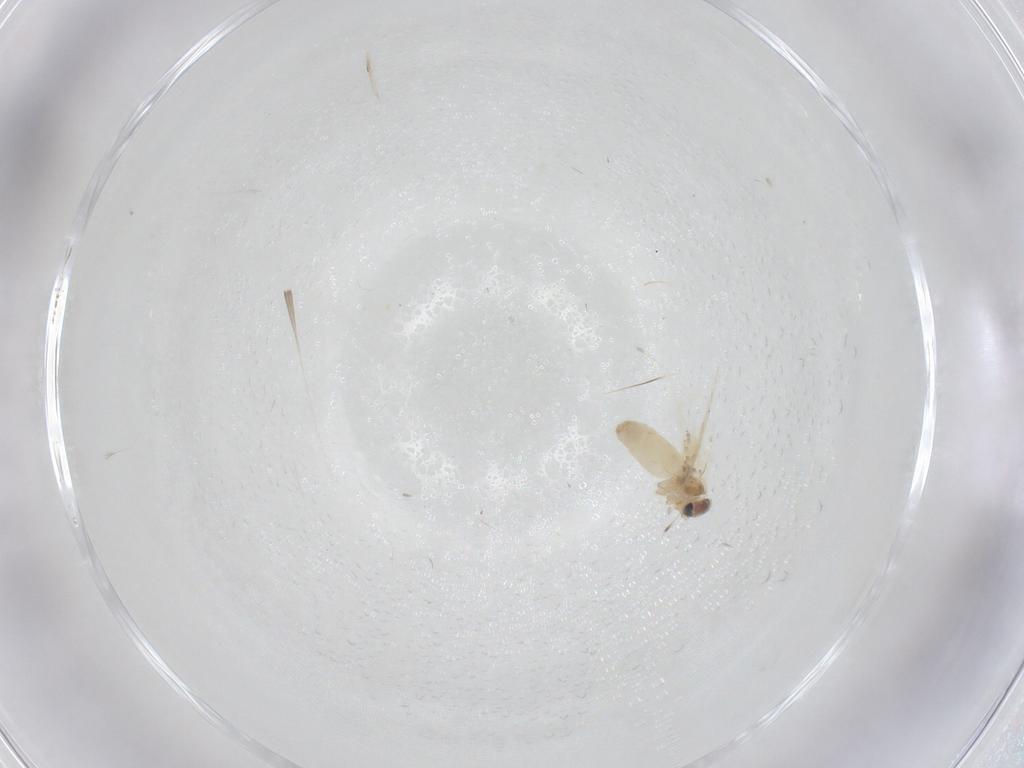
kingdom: Animalia
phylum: Arthropoda
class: Insecta
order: Lepidoptera
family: Crambidae
